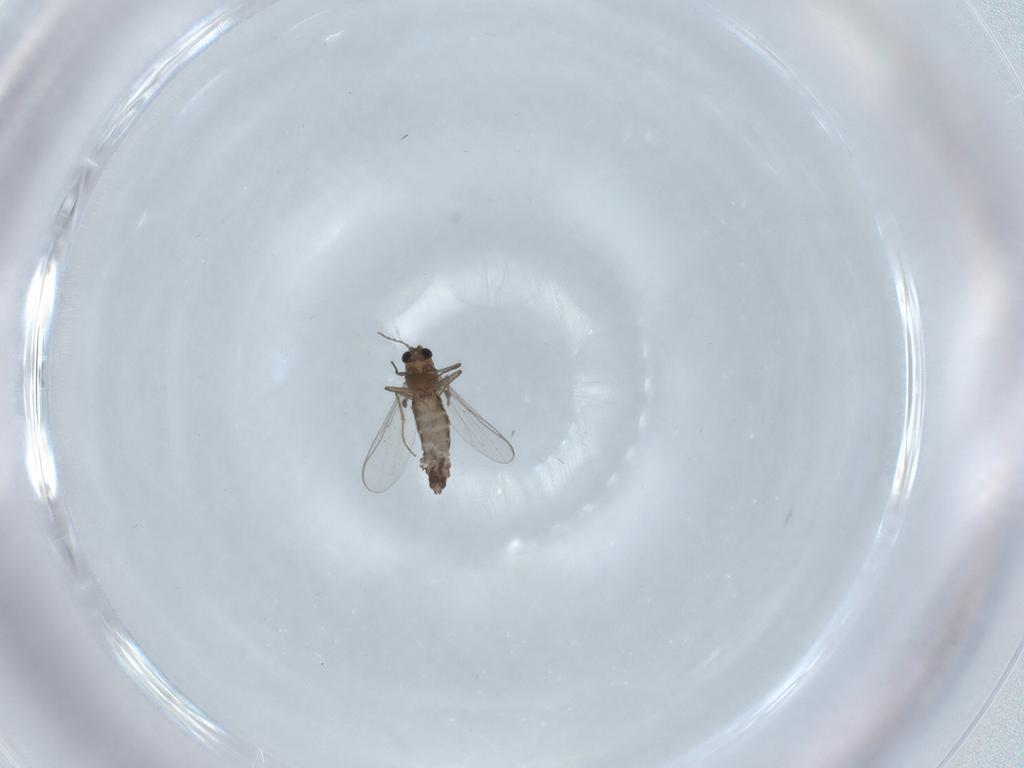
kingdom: Animalia
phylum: Arthropoda
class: Insecta
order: Diptera
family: Chironomidae
